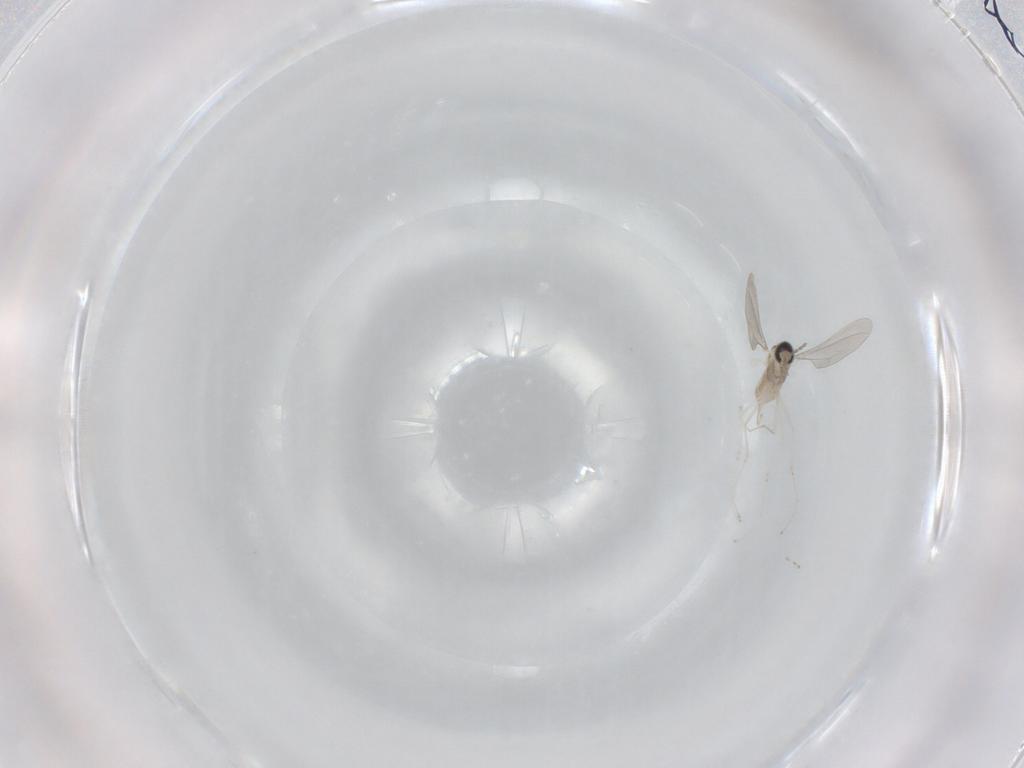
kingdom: Animalia
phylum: Arthropoda
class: Insecta
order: Diptera
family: Cecidomyiidae
